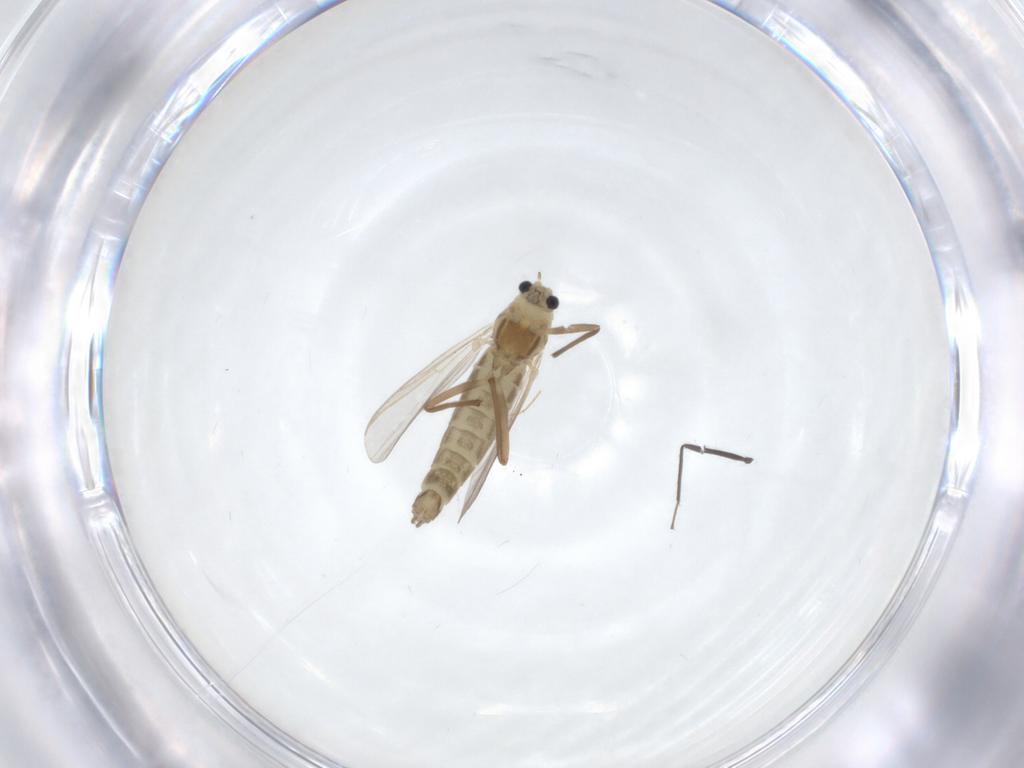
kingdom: Animalia
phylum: Arthropoda
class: Insecta
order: Diptera
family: Chironomidae
